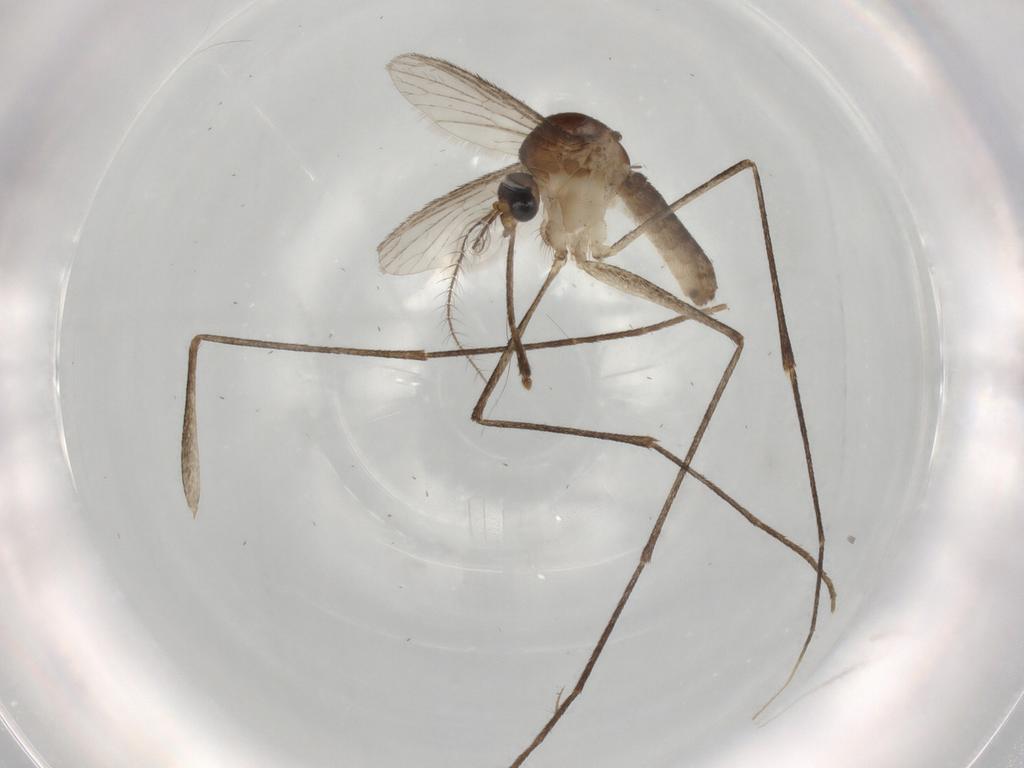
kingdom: Animalia
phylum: Arthropoda
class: Insecta
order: Diptera
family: Culicidae
